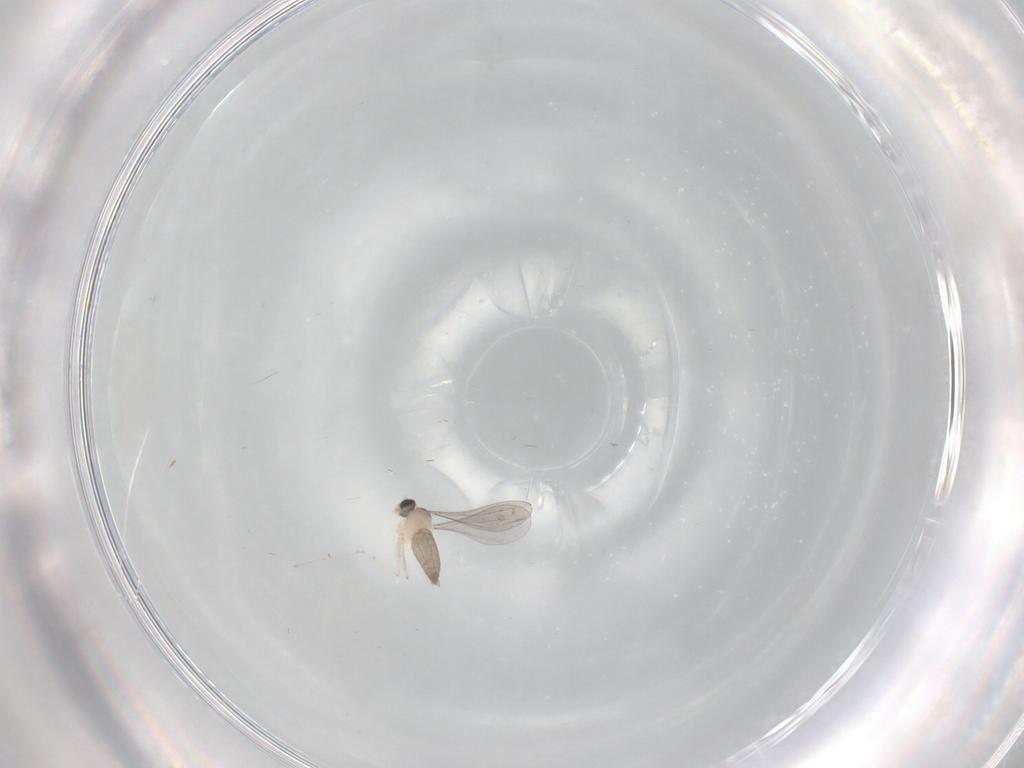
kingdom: Animalia
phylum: Arthropoda
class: Insecta
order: Diptera
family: Cecidomyiidae
